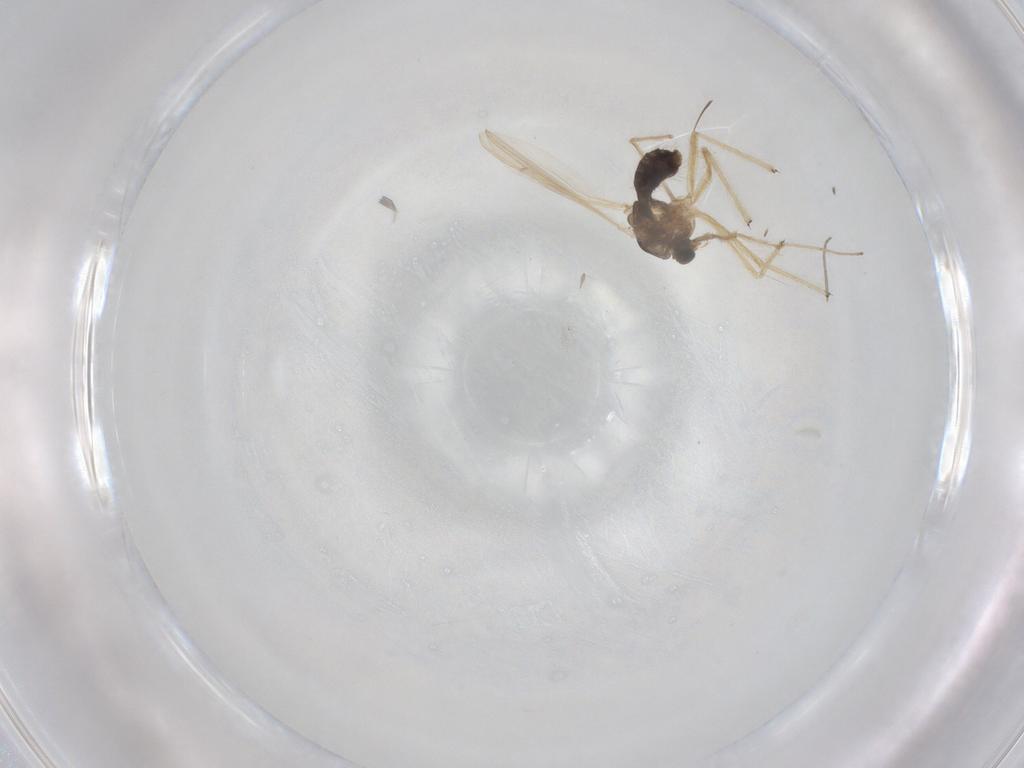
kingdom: Animalia
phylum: Arthropoda
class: Insecta
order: Diptera
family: Chironomidae
